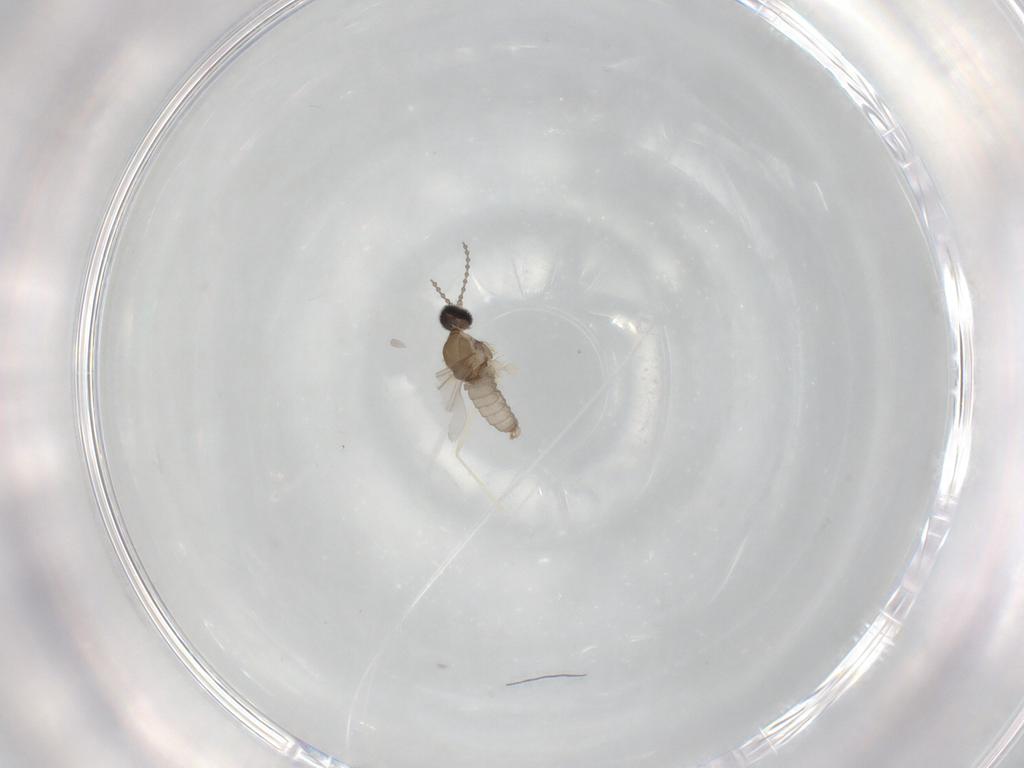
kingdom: Animalia
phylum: Arthropoda
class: Insecta
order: Diptera
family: Cecidomyiidae
